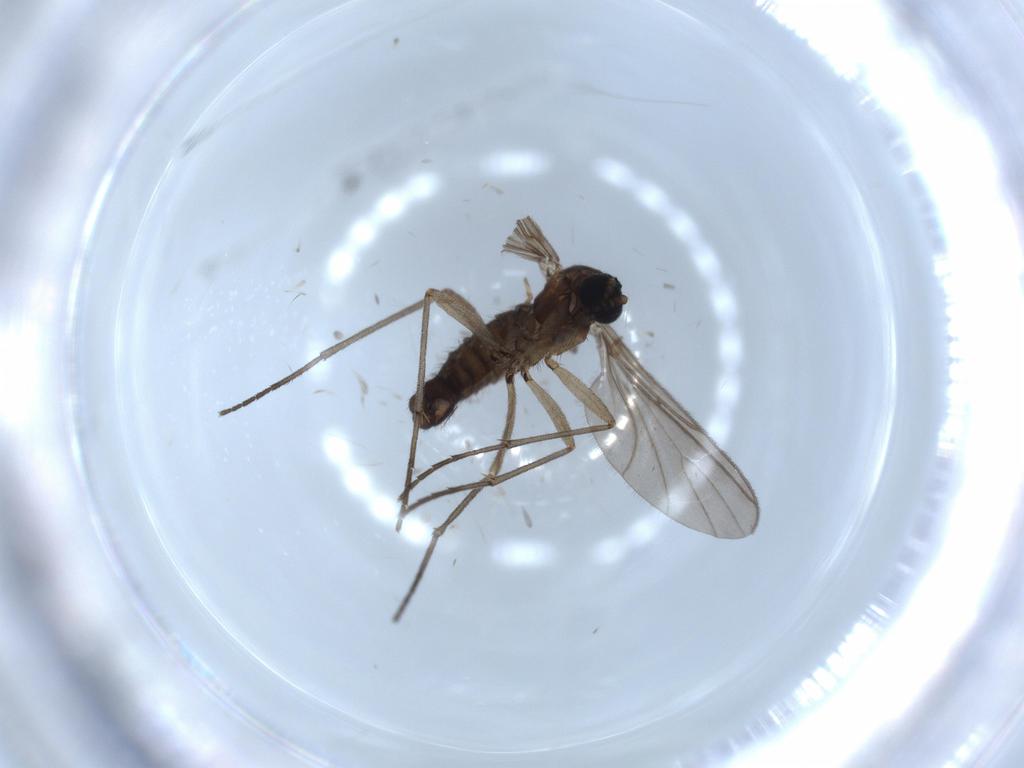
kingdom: Animalia
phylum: Arthropoda
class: Insecta
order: Diptera
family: Sciaridae
